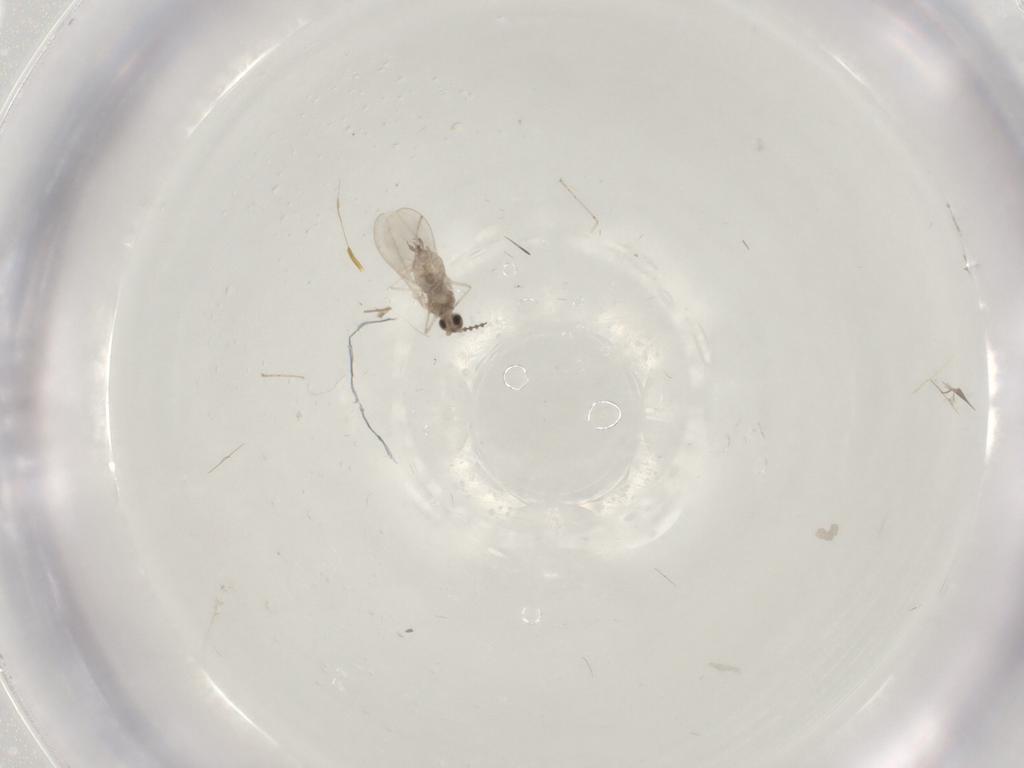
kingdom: Animalia
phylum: Arthropoda
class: Insecta
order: Diptera
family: Cecidomyiidae
